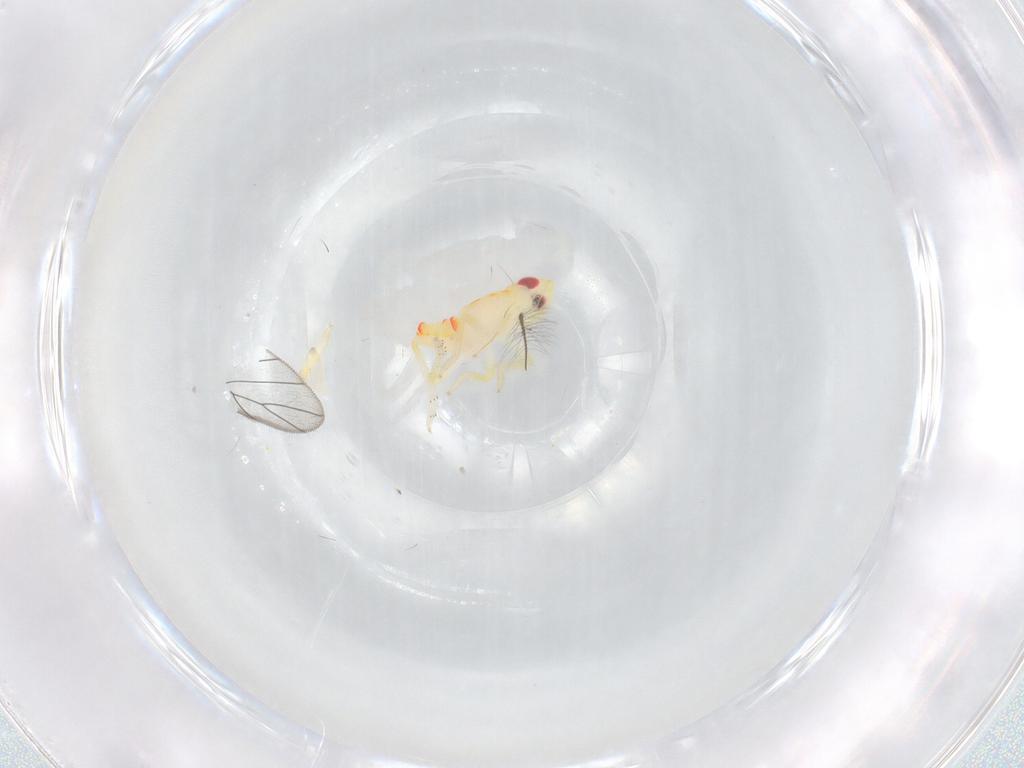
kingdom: Animalia
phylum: Arthropoda
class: Insecta
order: Hemiptera
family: Tropiduchidae
